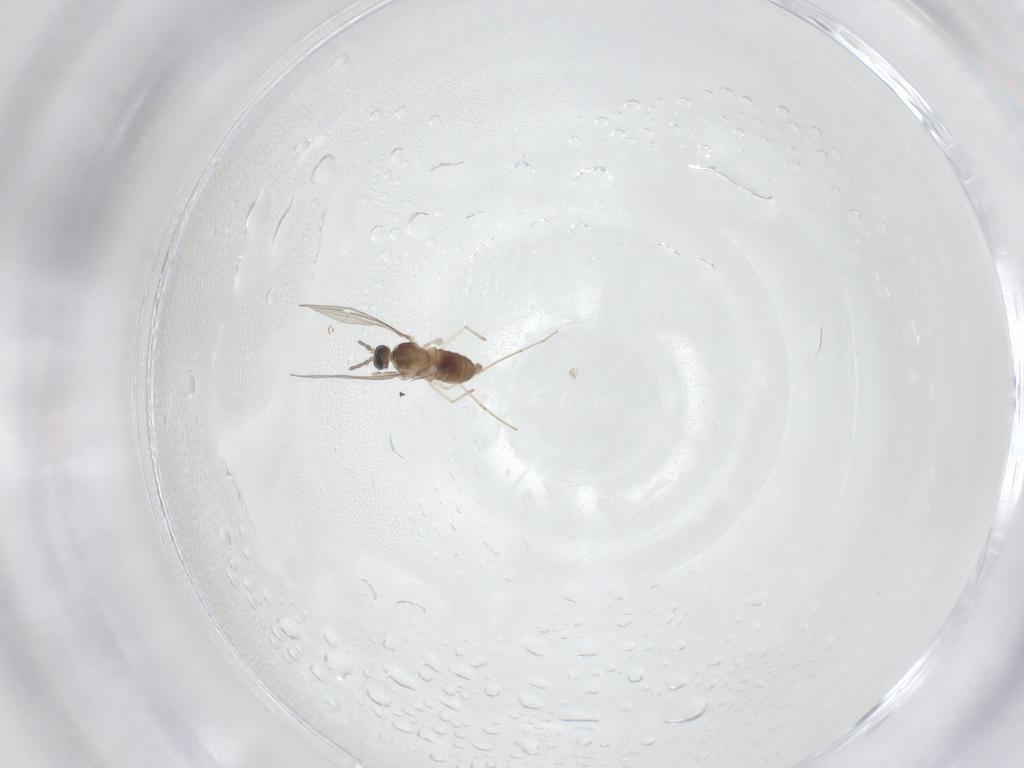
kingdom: Animalia
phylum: Arthropoda
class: Insecta
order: Diptera
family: Cecidomyiidae
